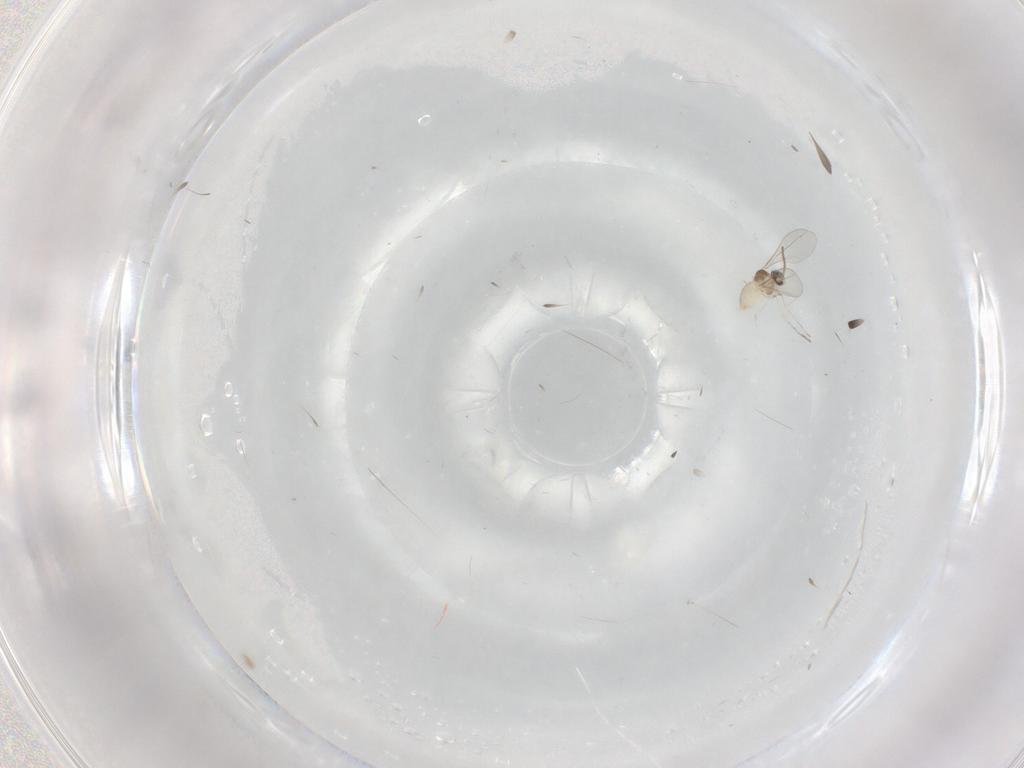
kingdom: Animalia
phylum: Arthropoda
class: Insecta
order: Diptera
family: Cecidomyiidae
